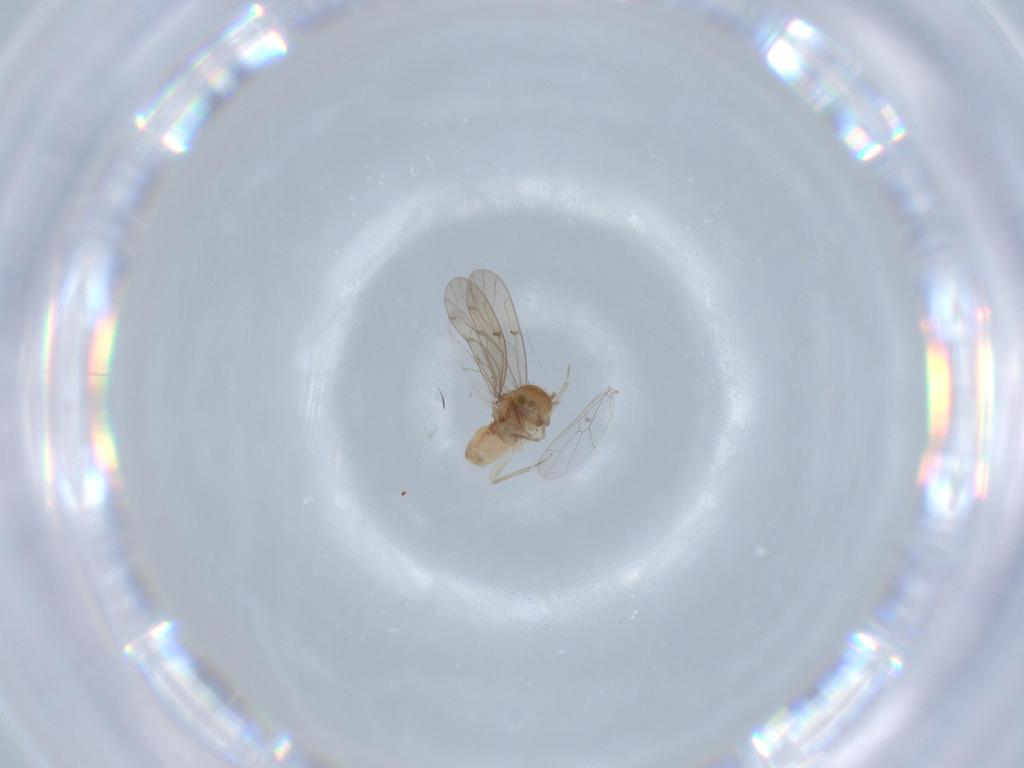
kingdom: Animalia
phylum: Arthropoda
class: Insecta
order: Psocodea
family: Ectopsocidae
